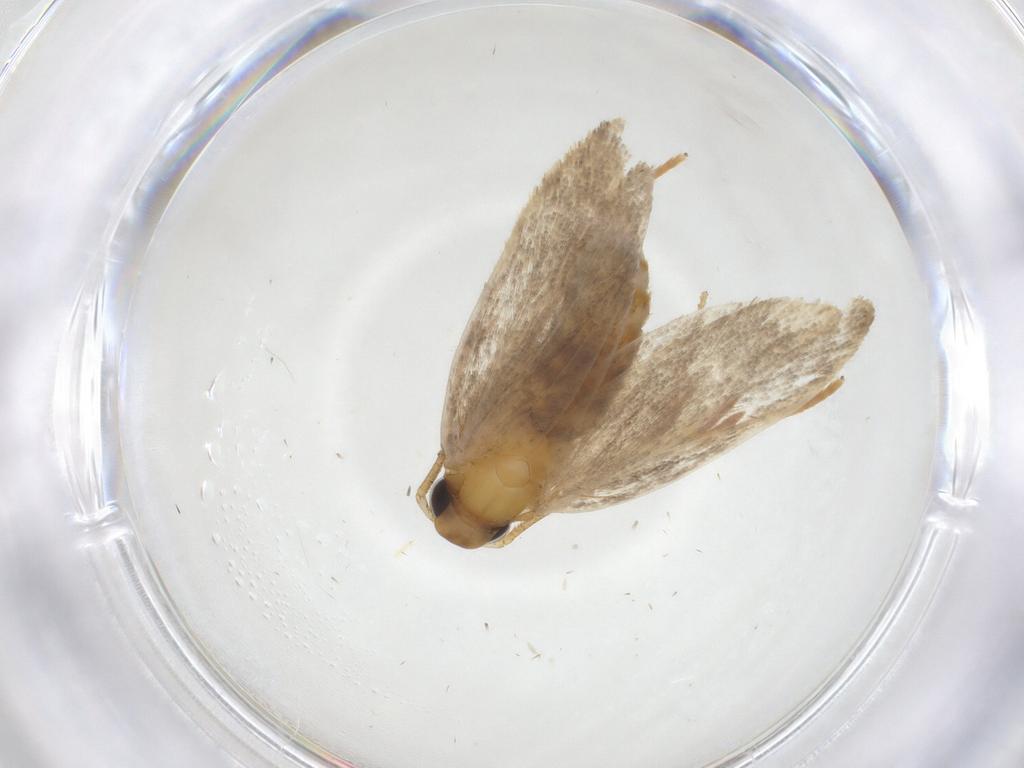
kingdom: Animalia
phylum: Arthropoda
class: Insecta
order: Lepidoptera
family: Oecophoridae
